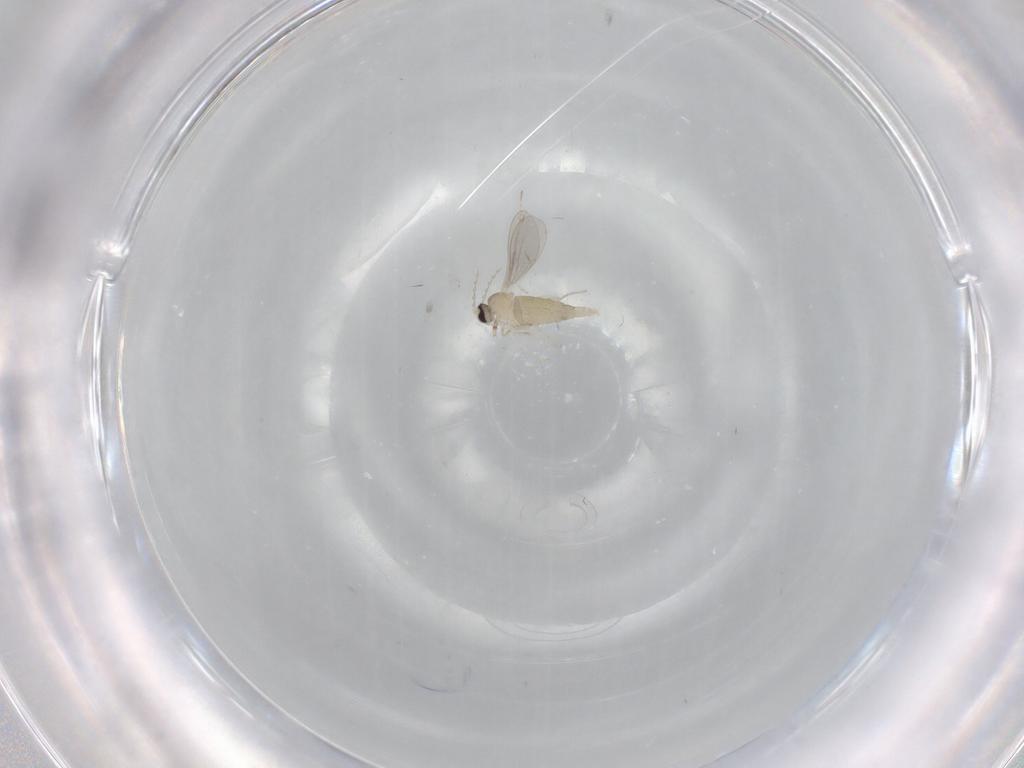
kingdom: Animalia
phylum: Arthropoda
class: Insecta
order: Diptera
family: Cecidomyiidae
